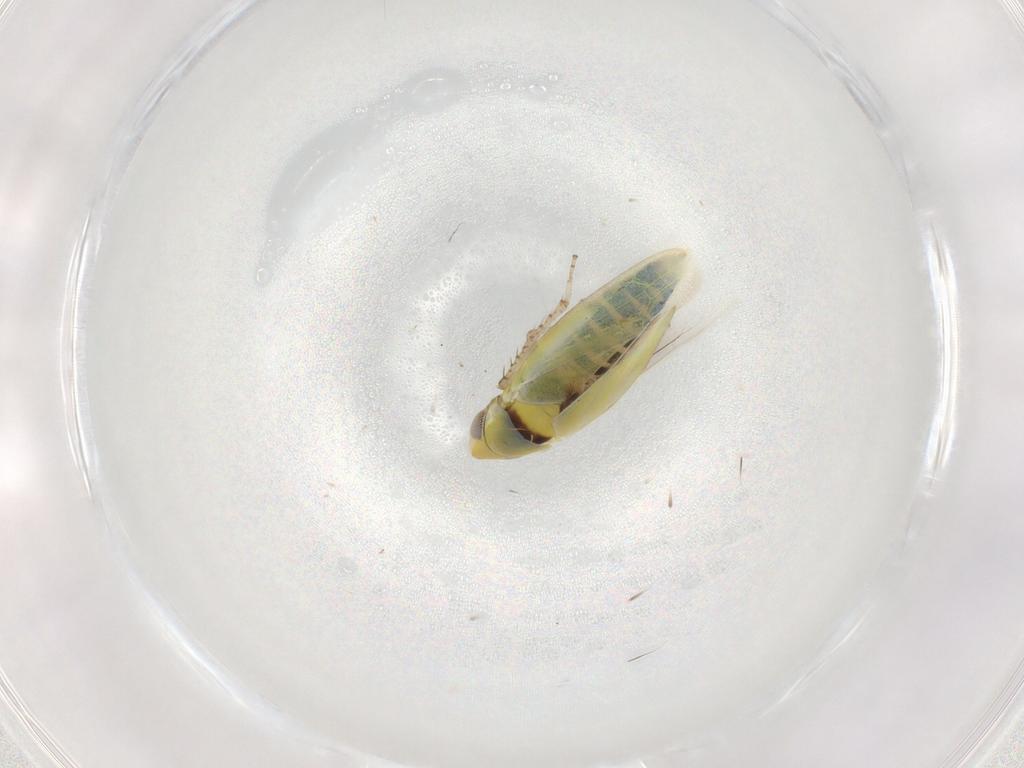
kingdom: Animalia
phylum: Arthropoda
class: Insecta
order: Hemiptera
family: Cicadellidae
